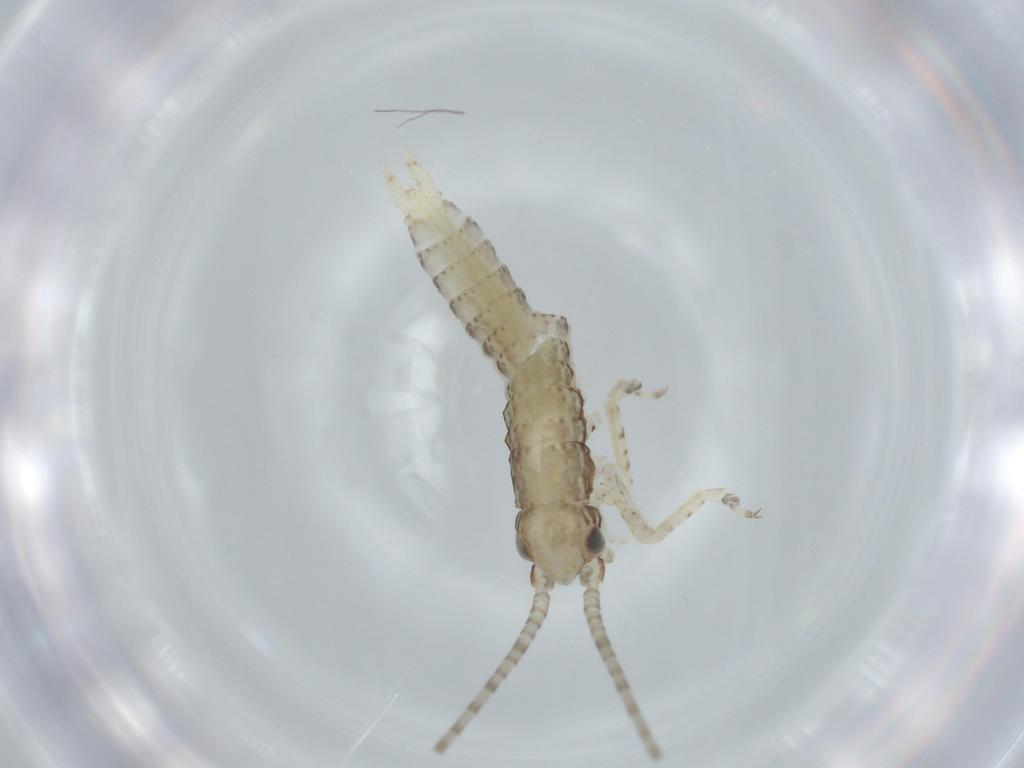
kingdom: Animalia
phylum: Arthropoda
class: Insecta
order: Orthoptera
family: Gryllidae
